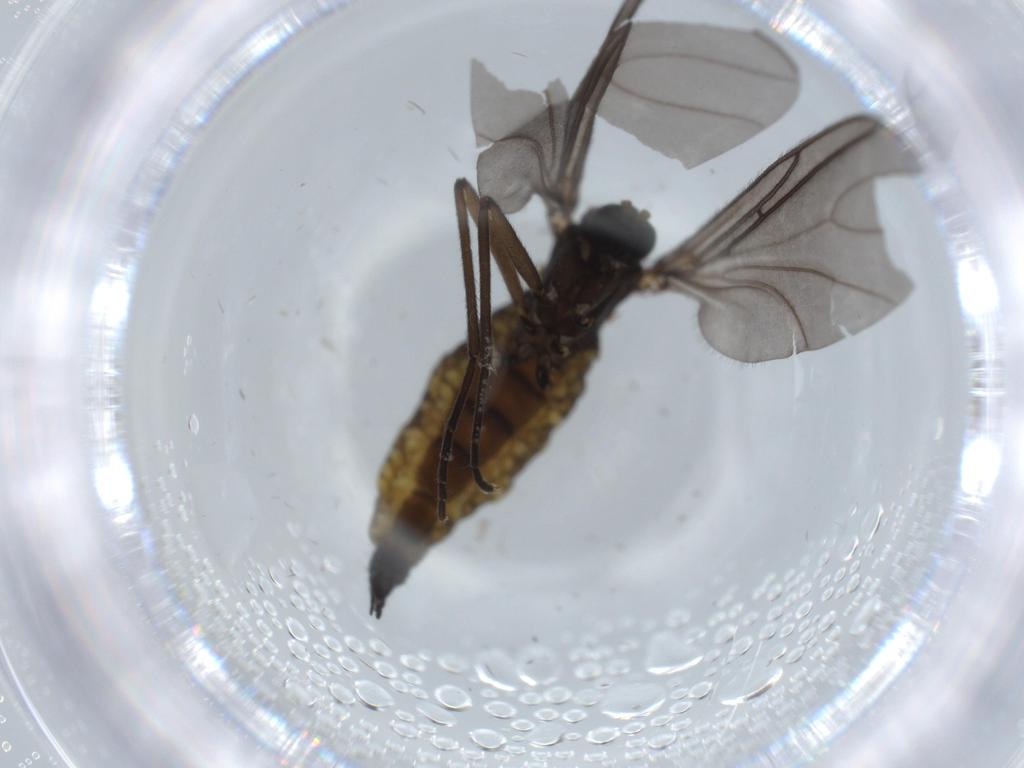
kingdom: Animalia
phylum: Arthropoda
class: Insecta
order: Diptera
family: Sciaridae
